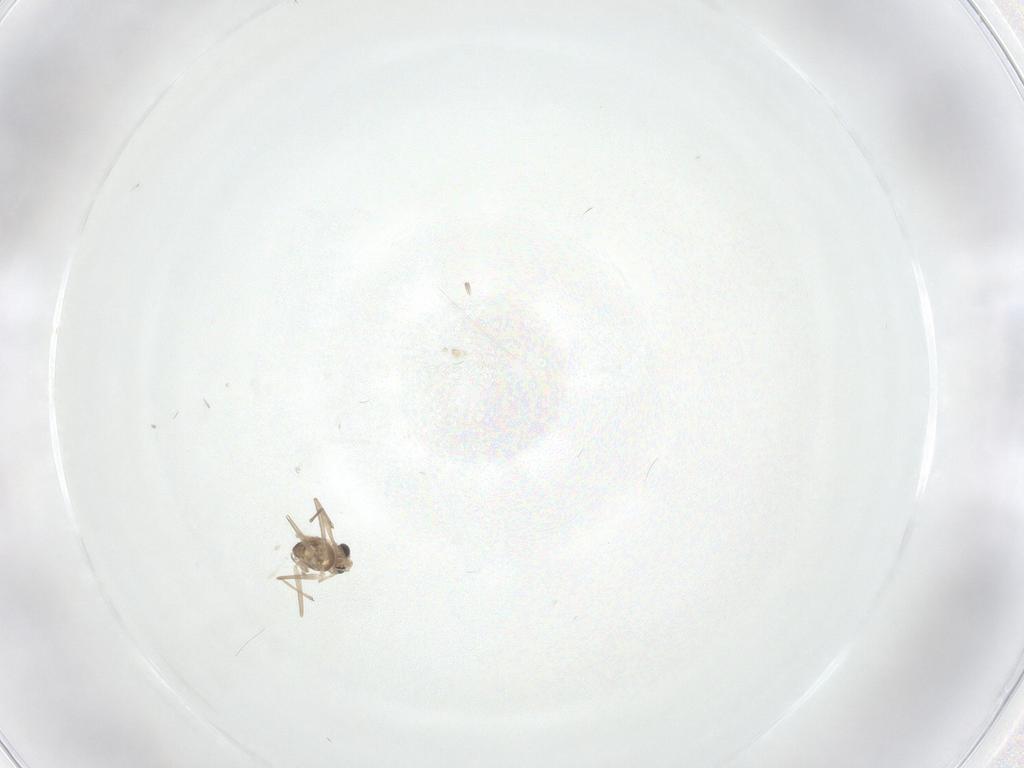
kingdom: Animalia
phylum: Arthropoda
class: Insecta
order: Diptera
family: Chironomidae
